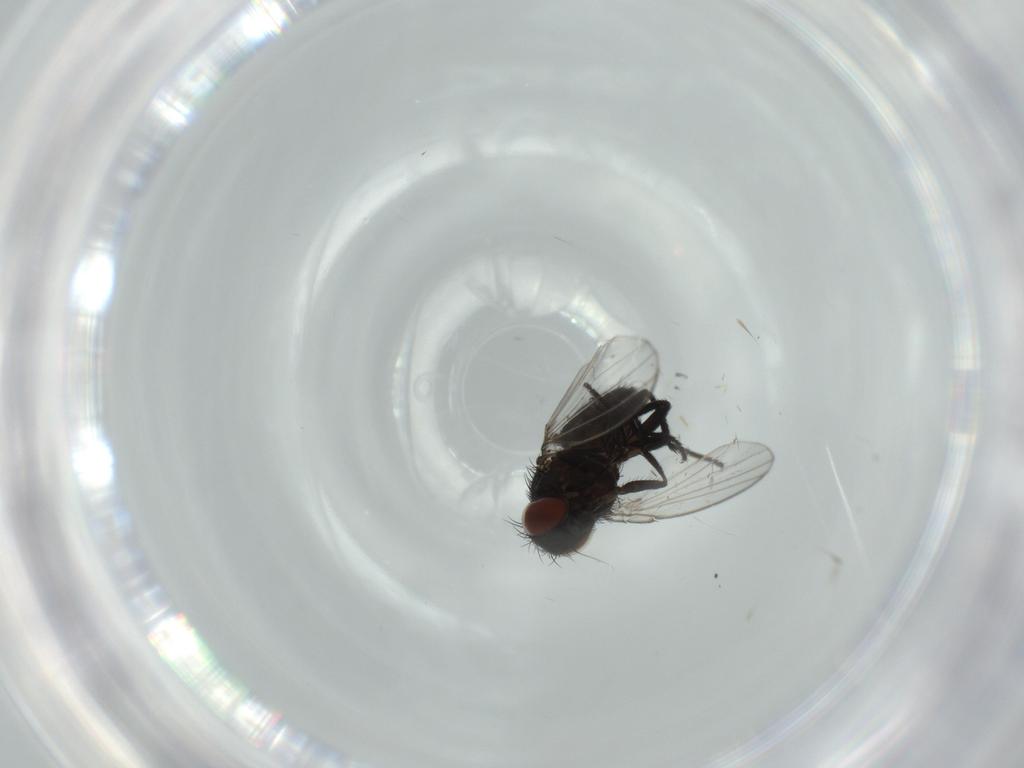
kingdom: Animalia
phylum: Arthropoda
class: Insecta
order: Diptera
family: Milichiidae
